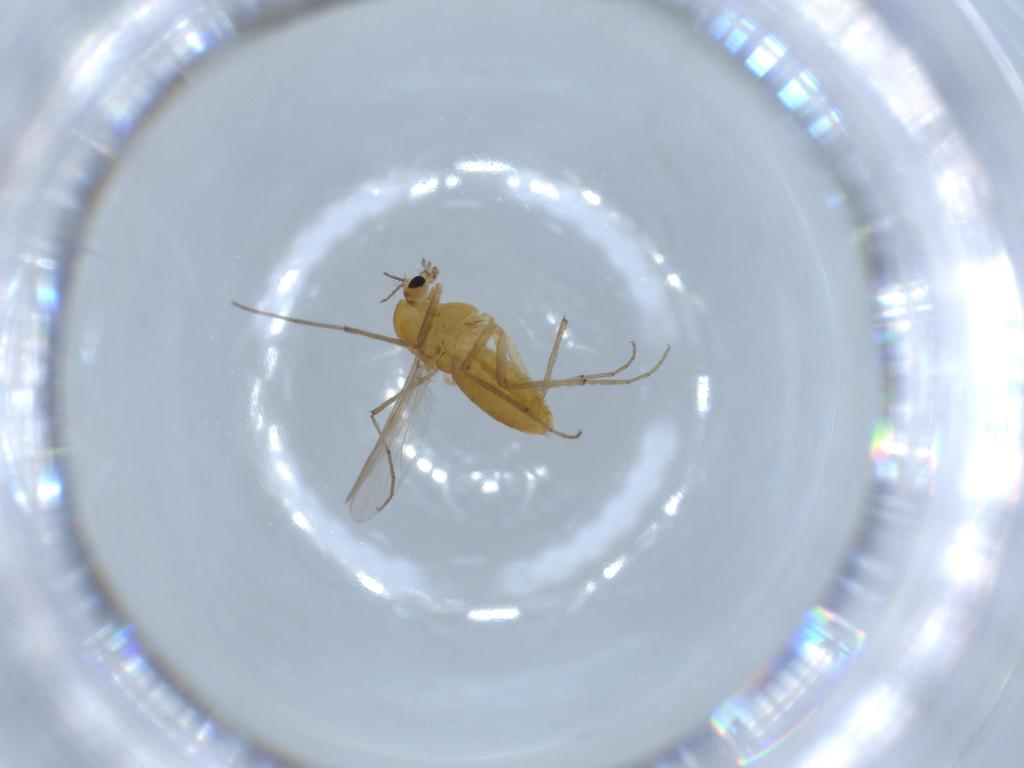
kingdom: Animalia
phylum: Arthropoda
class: Insecta
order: Diptera
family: Chironomidae
